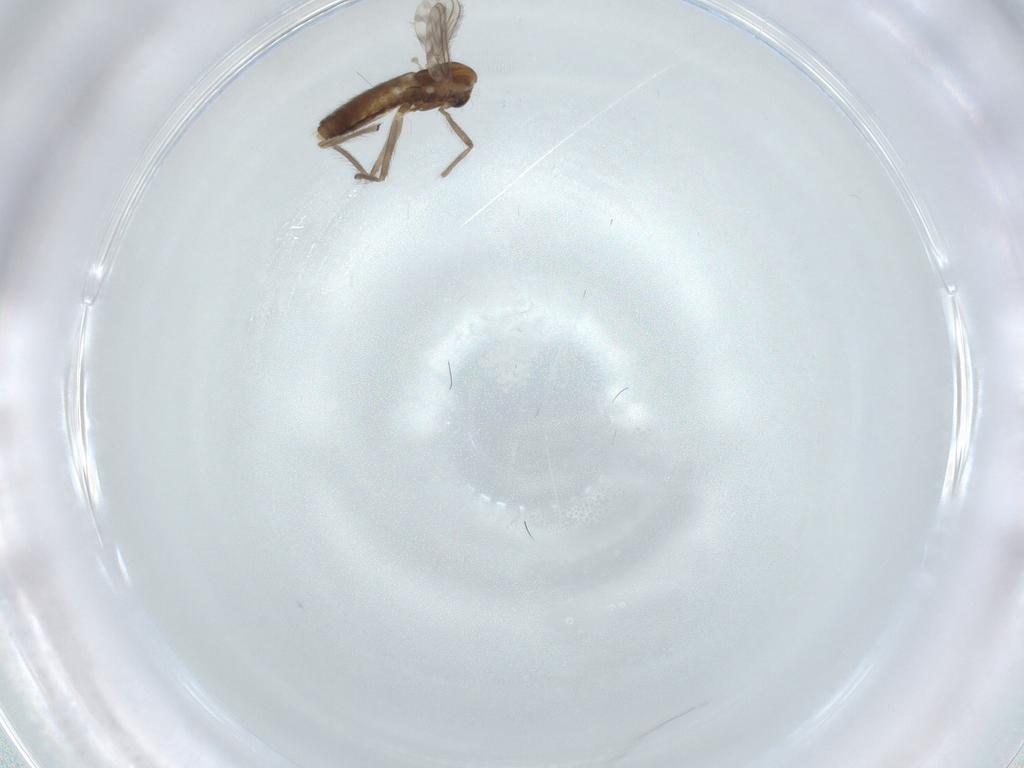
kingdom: Animalia
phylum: Arthropoda
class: Insecta
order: Diptera
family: Chironomidae
